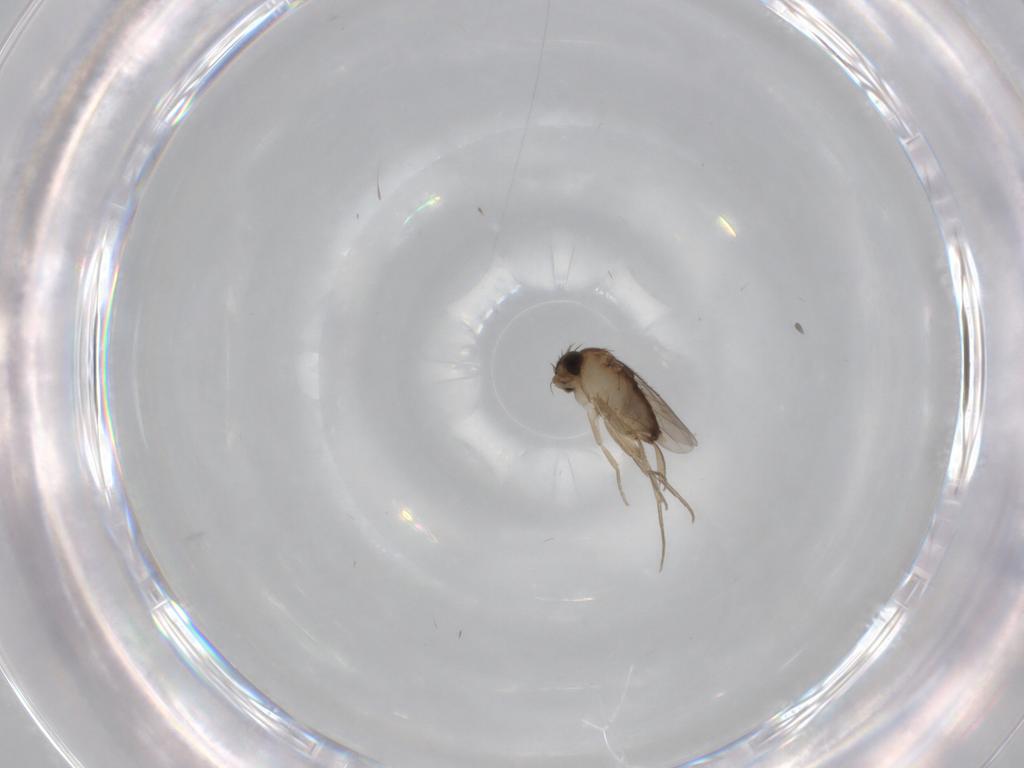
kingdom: Animalia
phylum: Arthropoda
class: Insecta
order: Diptera
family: Phoridae
